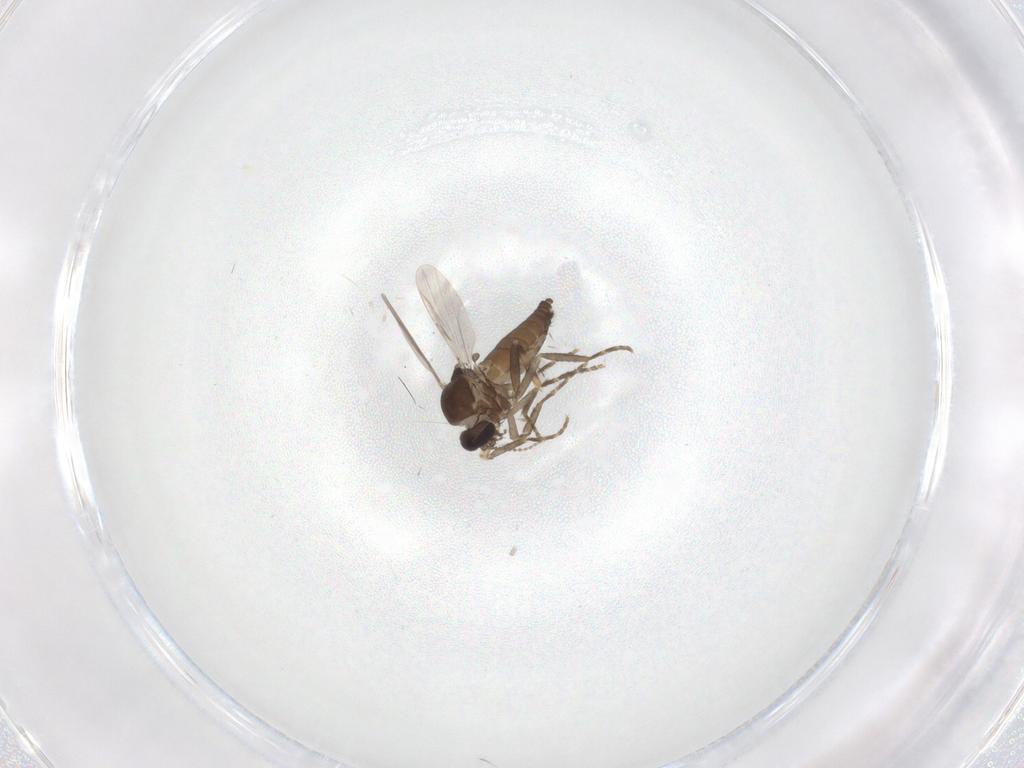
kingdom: Animalia
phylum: Arthropoda
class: Insecta
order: Diptera
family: Ceratopogonidae
